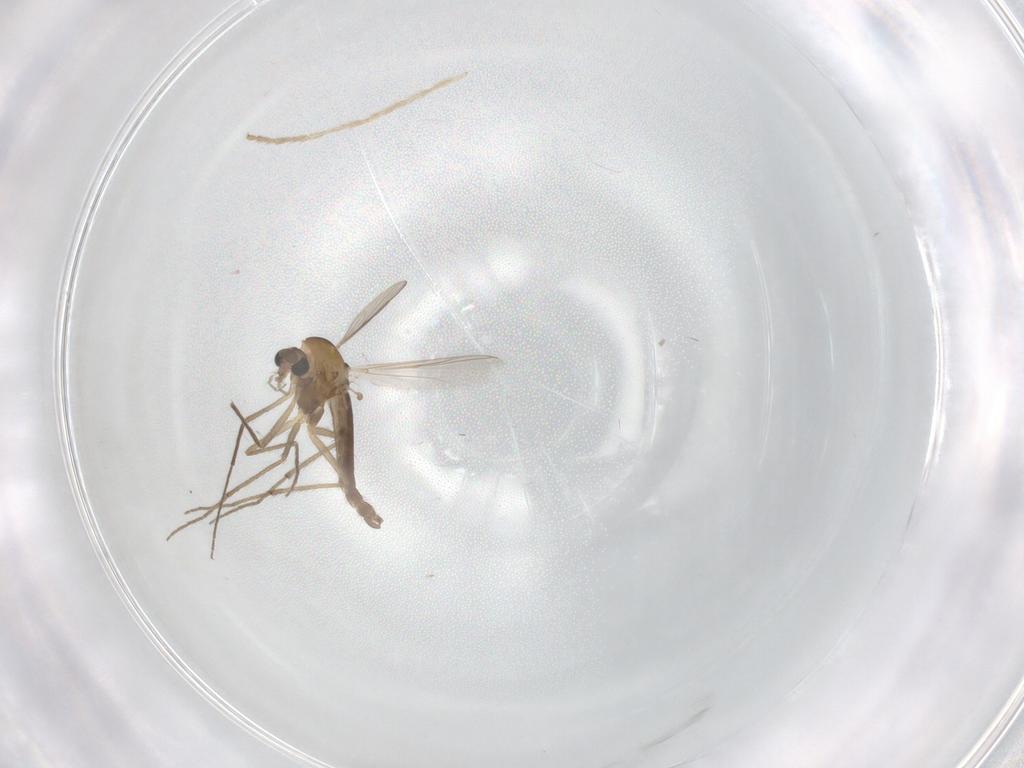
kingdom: Animalia
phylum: Arthropoda
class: Insecta
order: Diptera
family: Chironomidae
